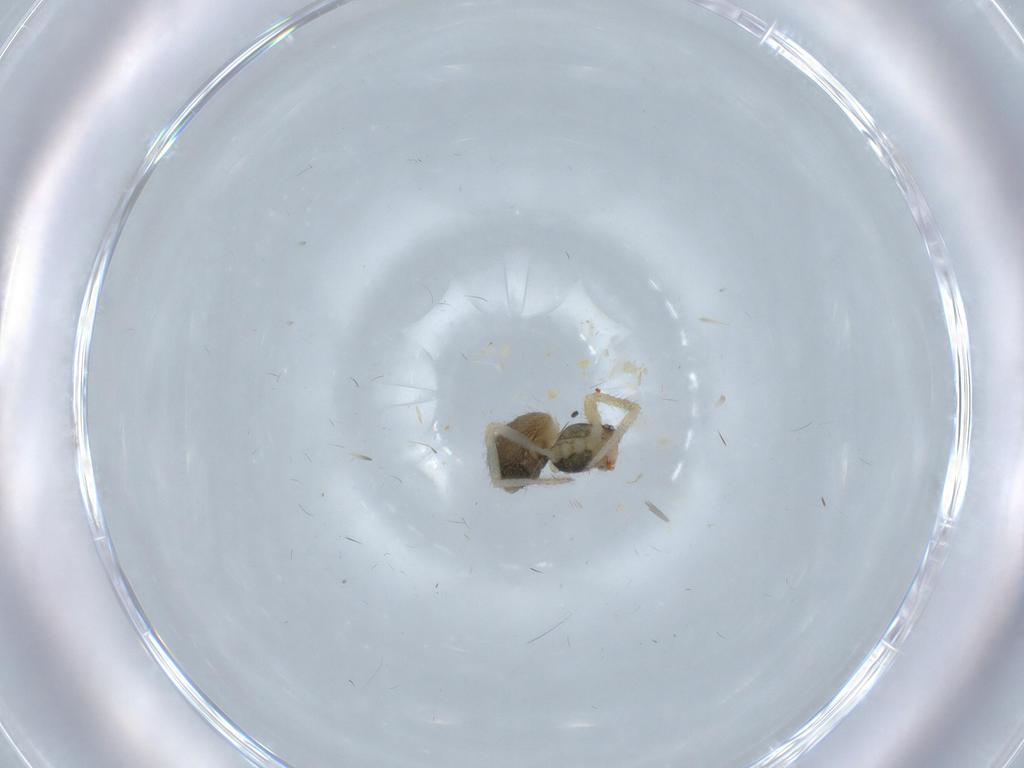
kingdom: Animalia
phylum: Arthropoda
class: Arachnida
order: Araneae
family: Nesticidae
